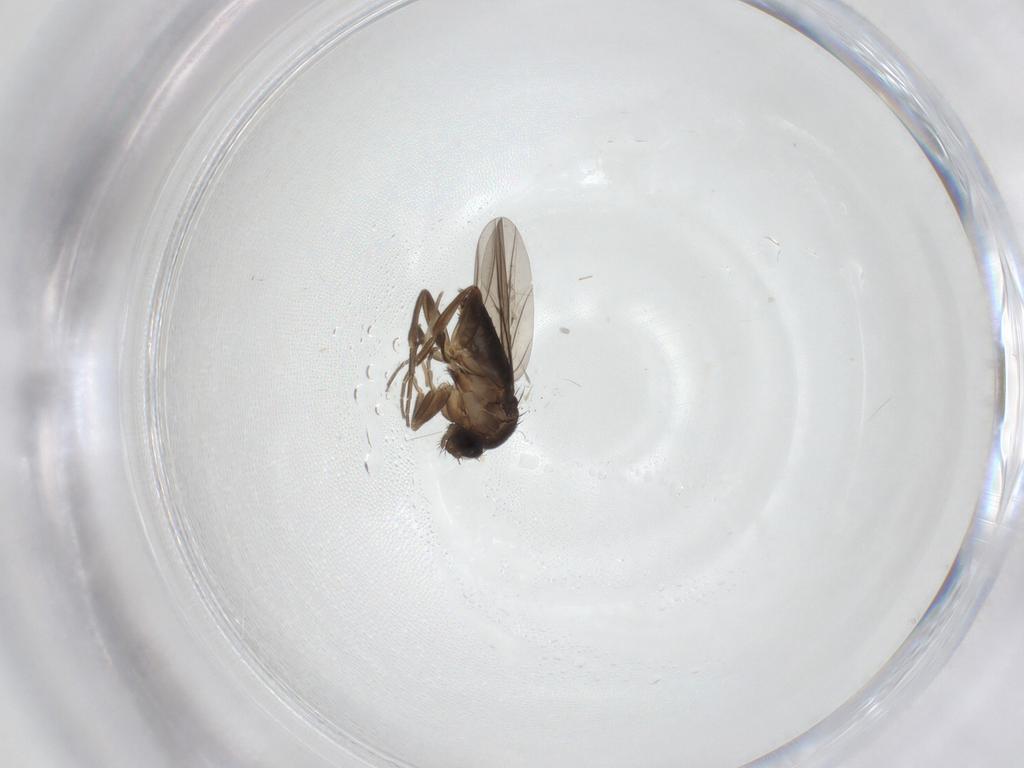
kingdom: Animalia
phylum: Arthropoda
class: Insecta
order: Diptera
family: Phoridae
